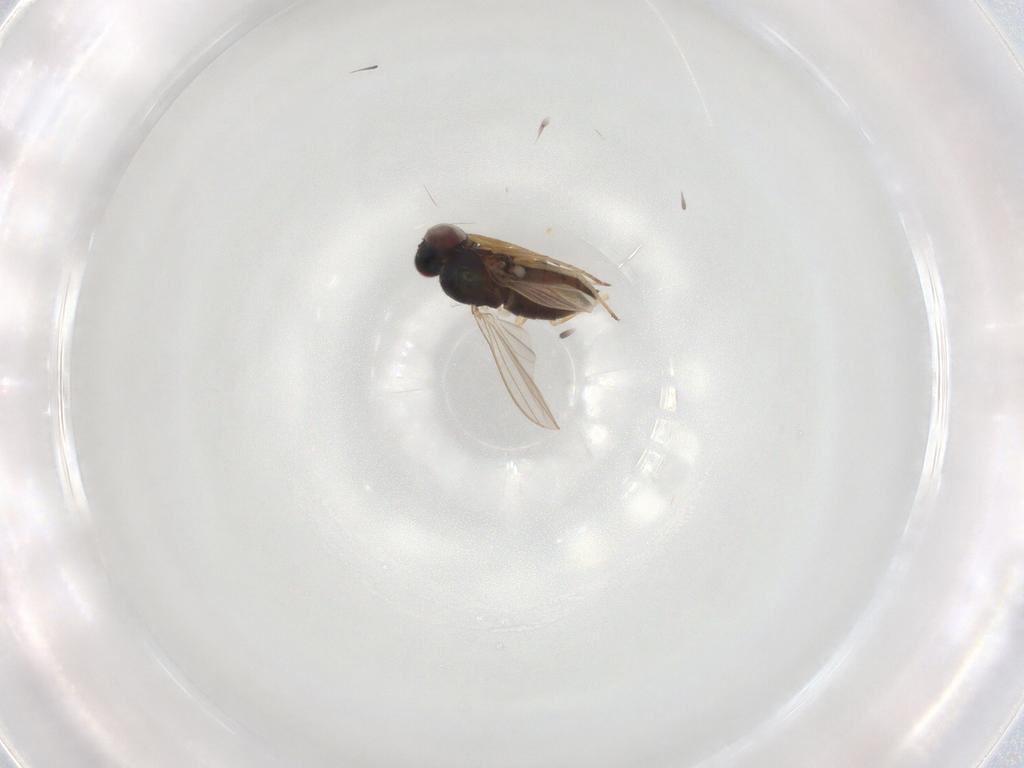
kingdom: Animalia
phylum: Arthropoda
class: Insecta
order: Diptera
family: Dolichopodidae
